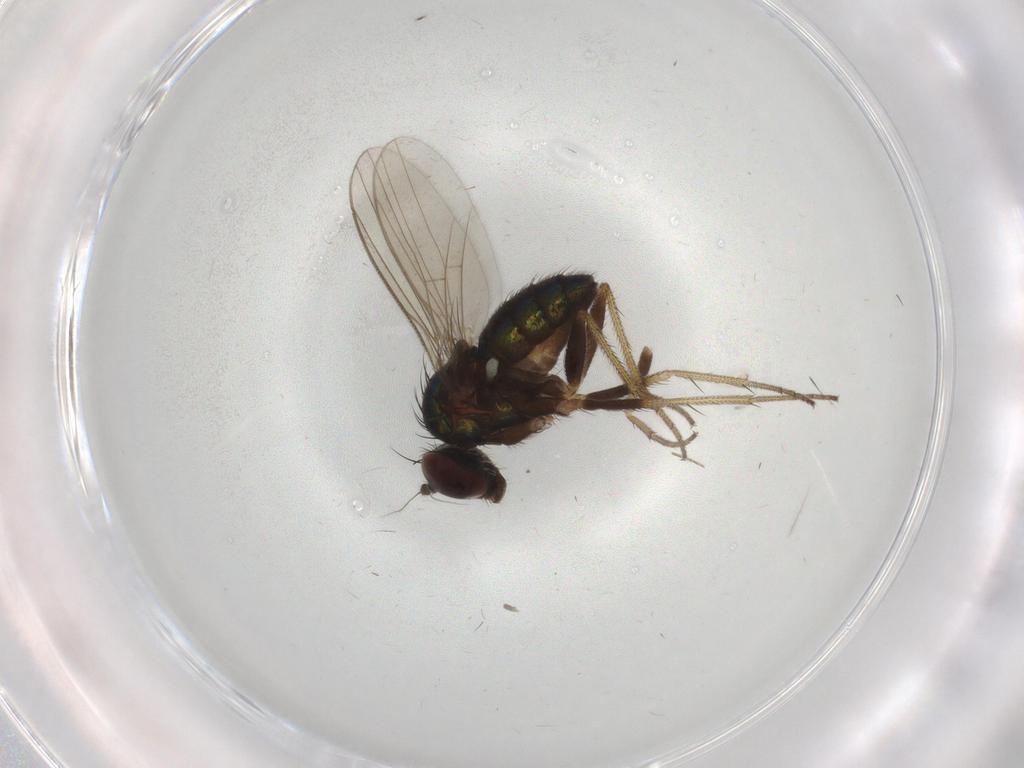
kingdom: Animalia
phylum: Arthropoda
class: Insecta
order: Diptera
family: Dolichopodidae
